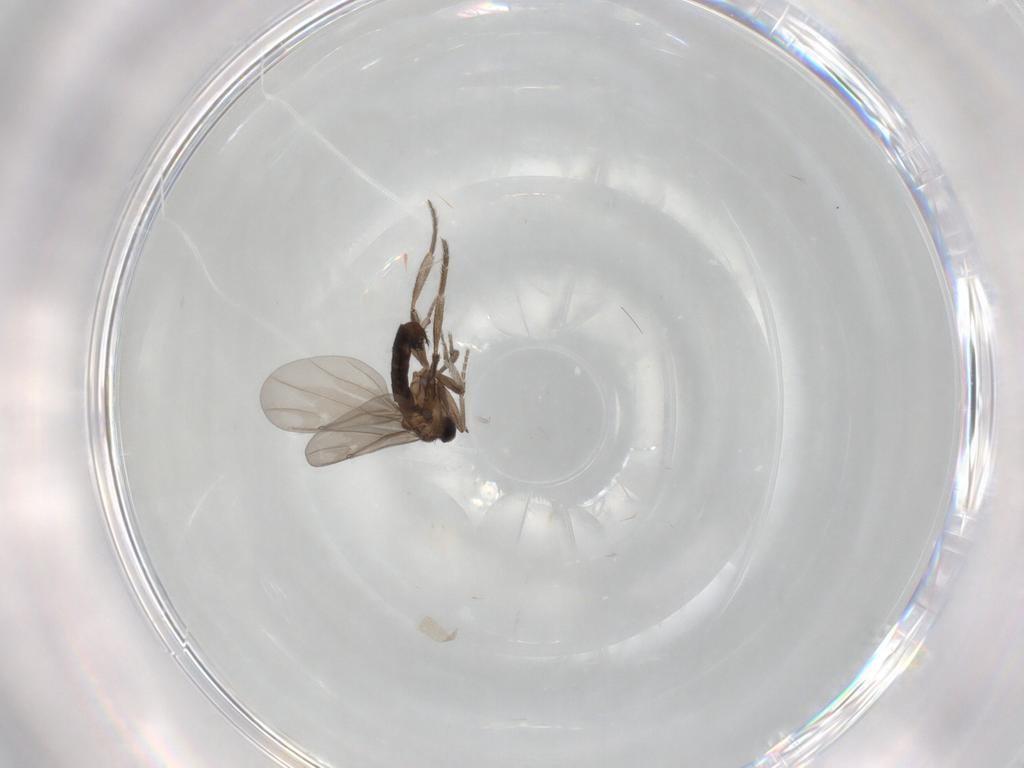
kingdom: Animalia
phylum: Arthropoda
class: Insecta
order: Diptera
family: Phoridae
